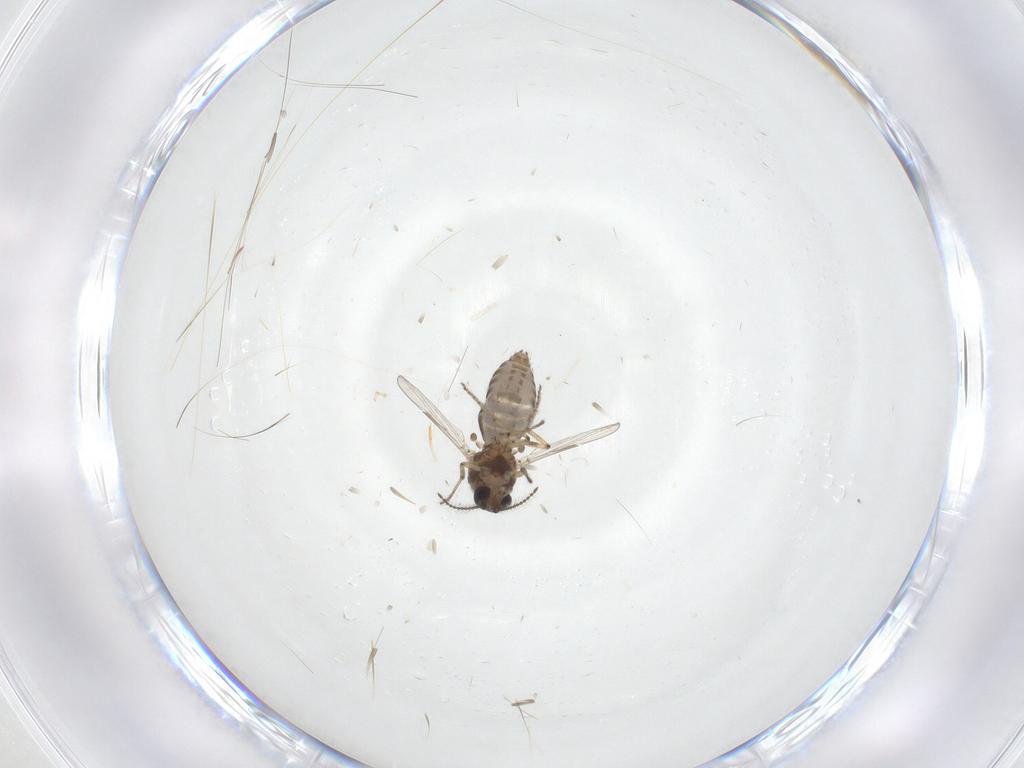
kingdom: Animalia
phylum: Arthropoda
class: Insecta
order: Diptera
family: Ceratopogonidae
